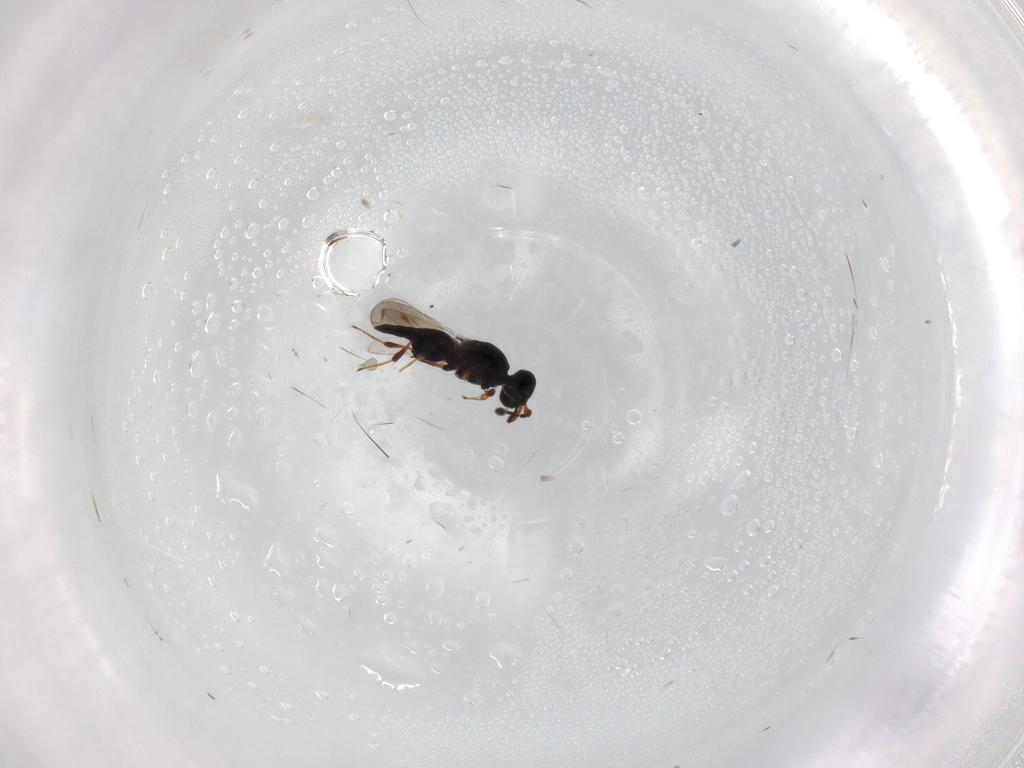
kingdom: Animalia
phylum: Arthropoda
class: Insecta
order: Hymenoptera
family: Platygastridae
